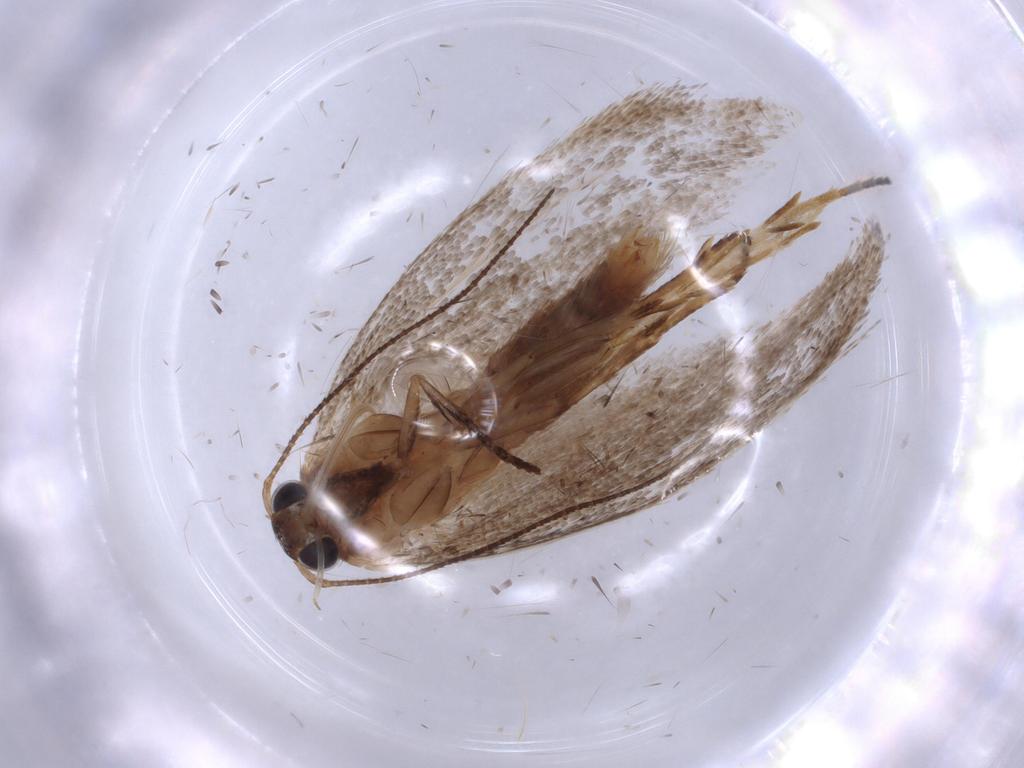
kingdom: Animalia
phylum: Arthropoda
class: Insecta
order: Lepidoptera
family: Oecophoridae
